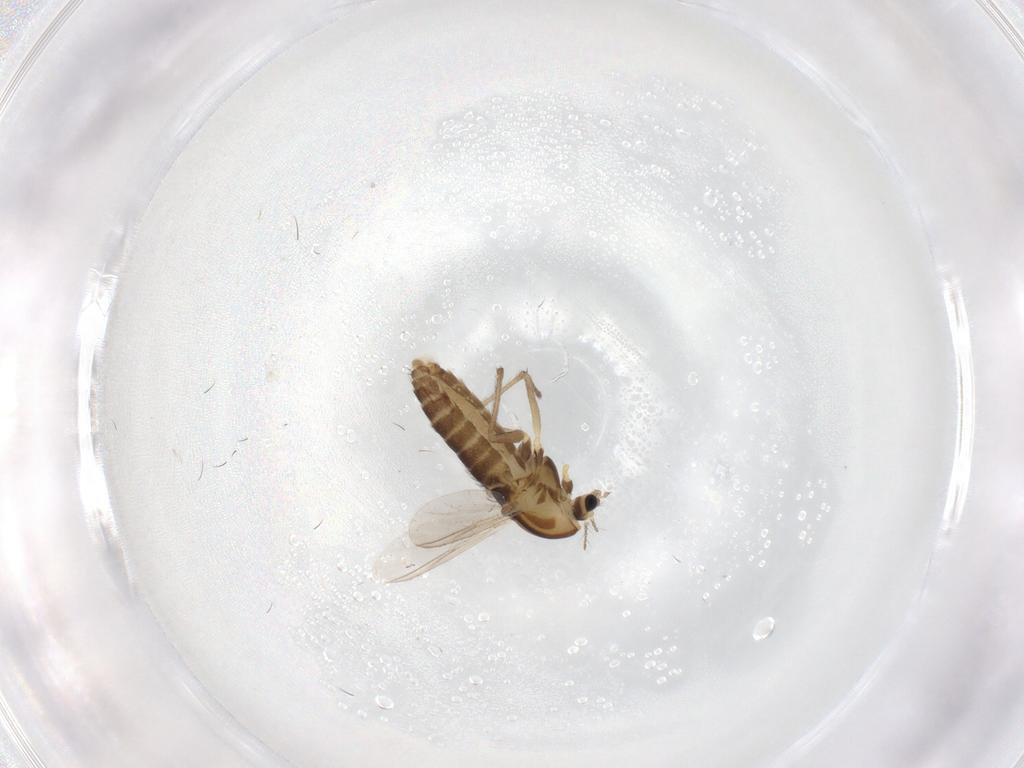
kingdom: Animalia
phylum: Arthropoda
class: Insecta
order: Diptera
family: Chironomidae
